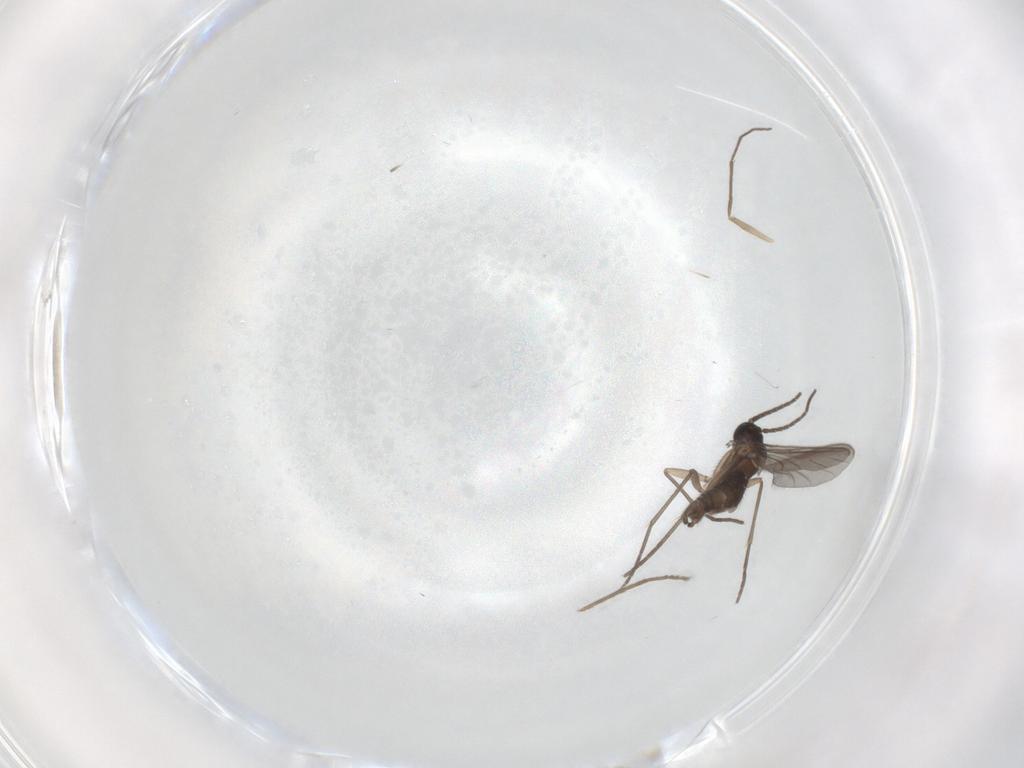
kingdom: Animalia
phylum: Arthropoda
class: Insecta
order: Diptera
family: Sciaridae
